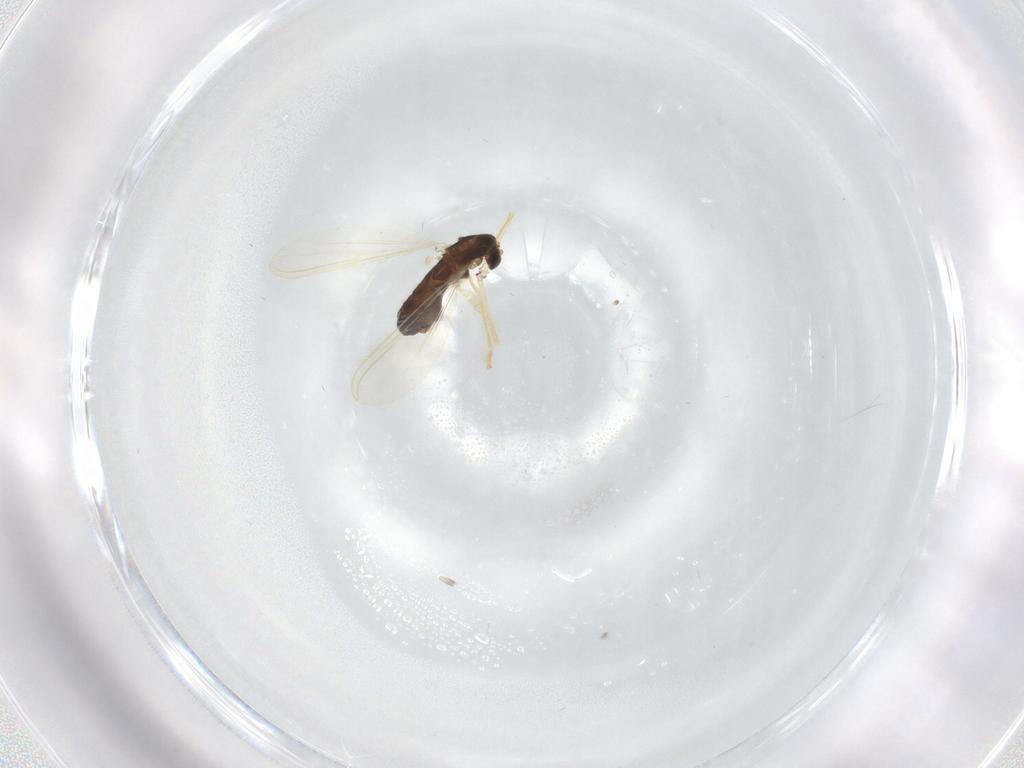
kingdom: Animalia
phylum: Arthropoda
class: Insecta
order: Diptera
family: Chironomidae
